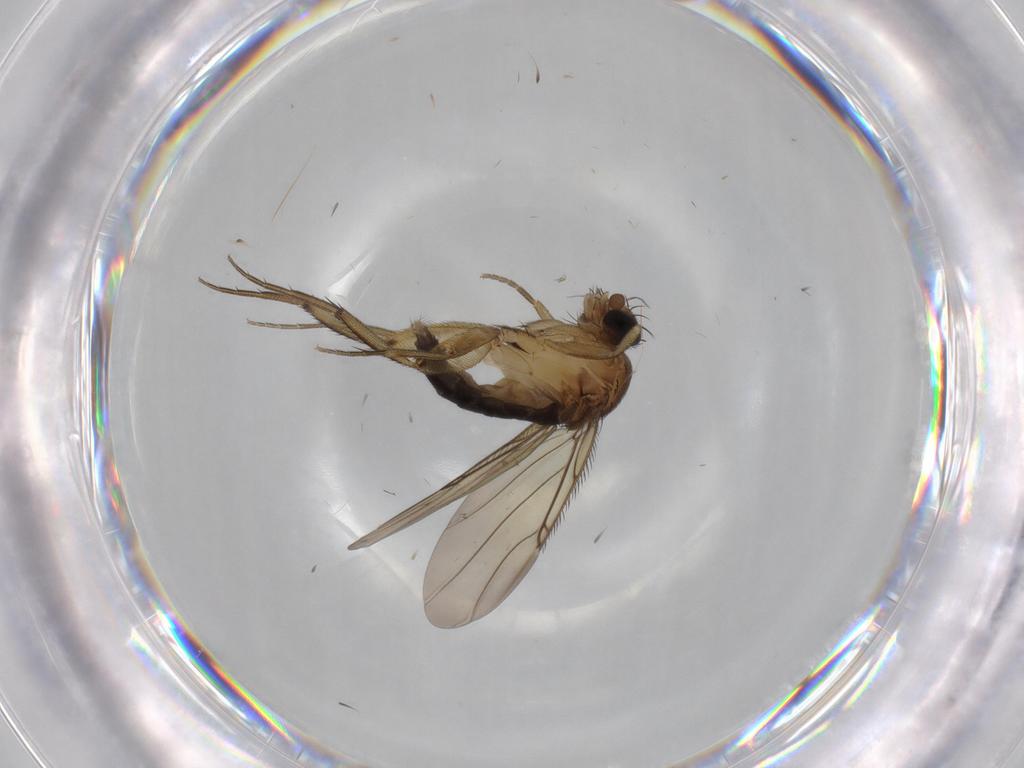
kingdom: Animalia
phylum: Arthropoda
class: Insecta
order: Diptera
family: Phoridae
